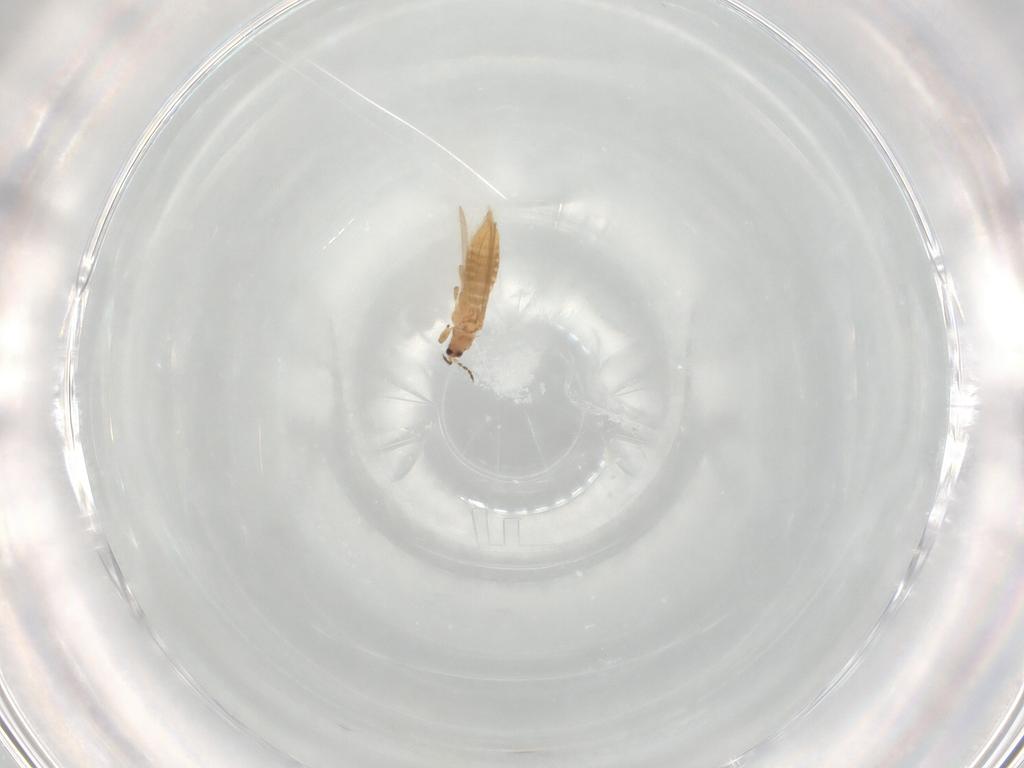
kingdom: Animalia
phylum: Arthropoda
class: Insecta
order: Thysanoptera
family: Thripidae
